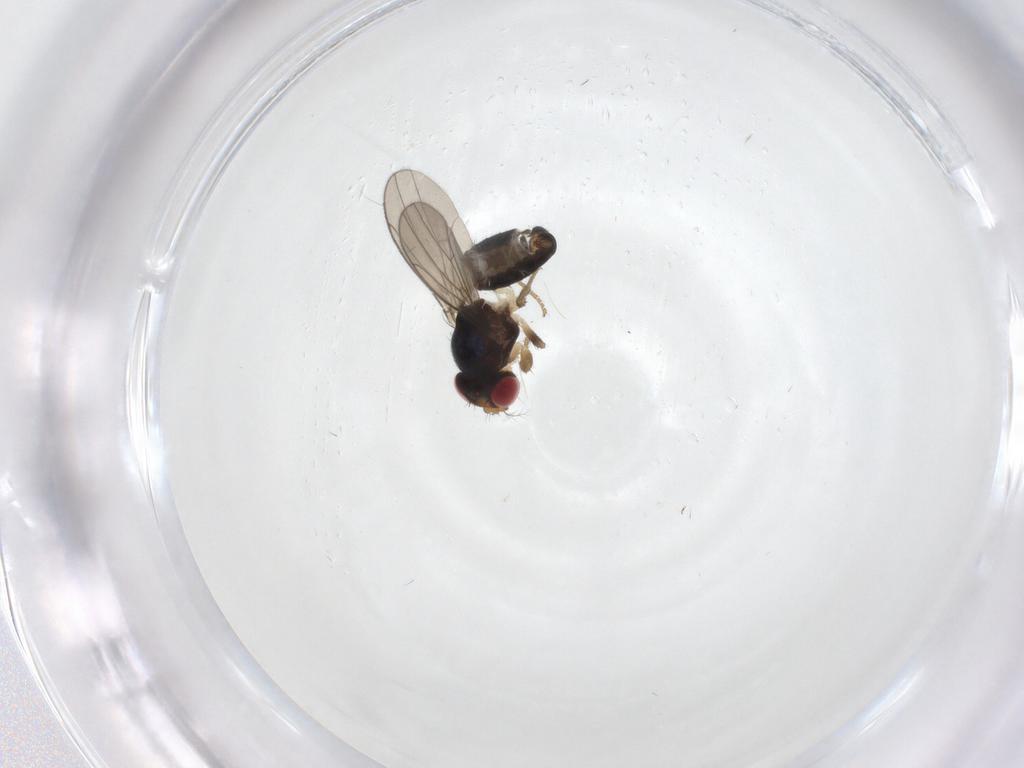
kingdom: Animalia
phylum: Arthropoda
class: Insecta
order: Diptera
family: Drosophilidae
